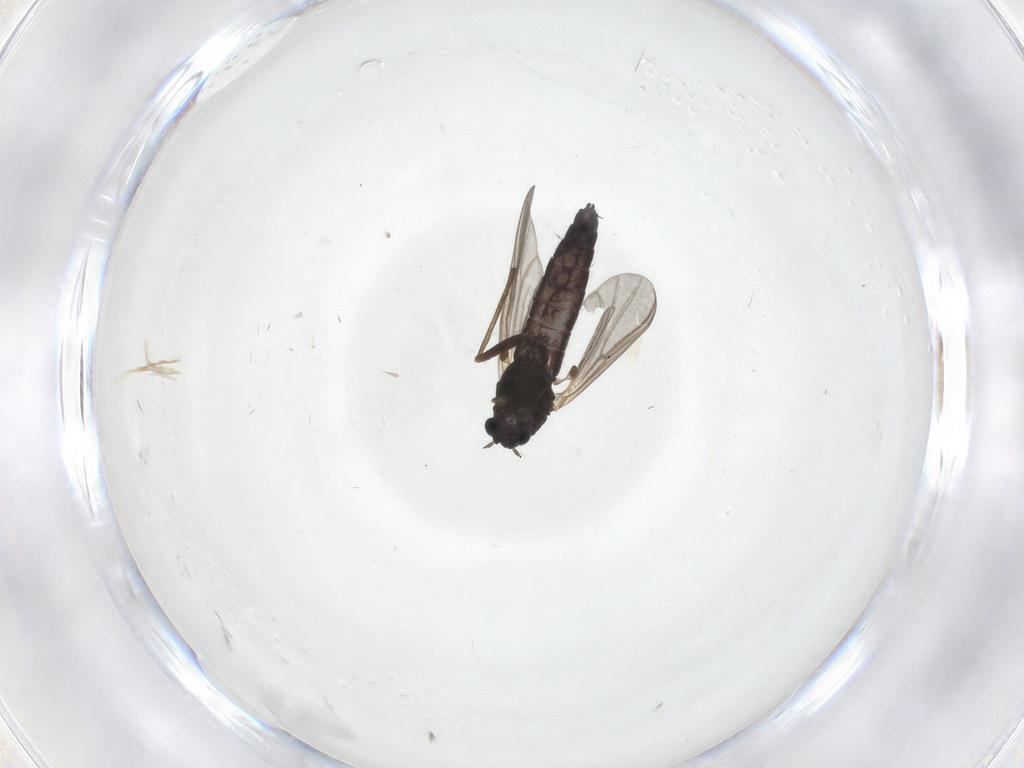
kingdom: Animalia
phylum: Arthropoda
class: Insecta
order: Diptera
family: Chironomidae
